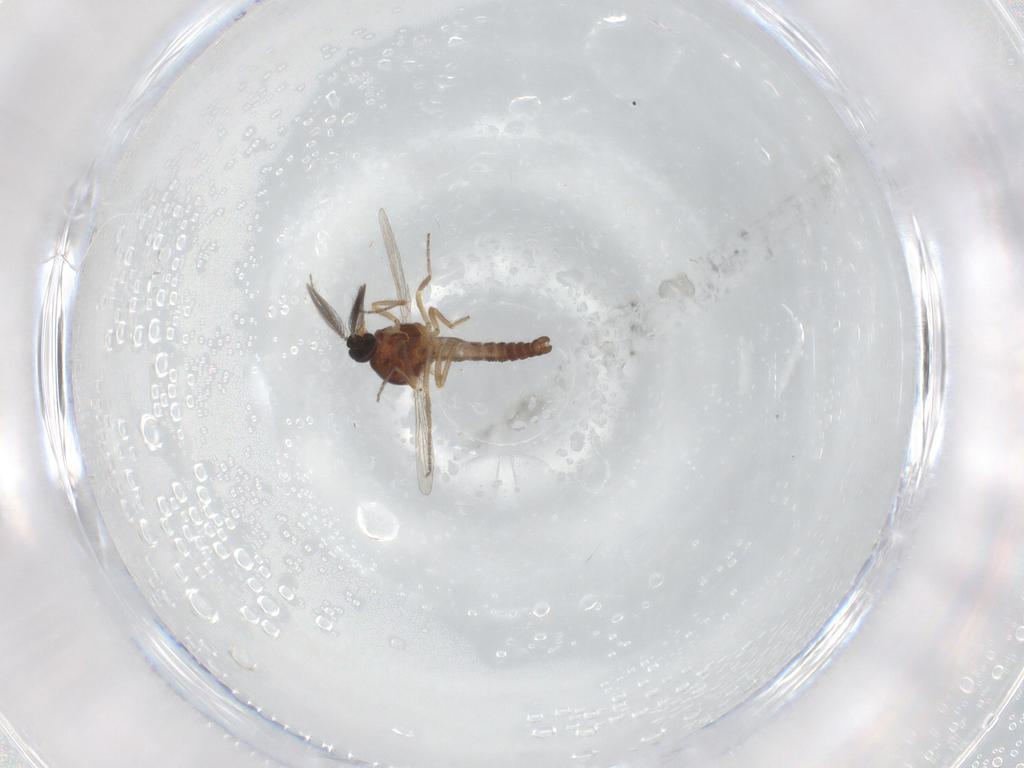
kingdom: Animalia
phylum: Arthropoda
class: Insecta
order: Diptera
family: Ceratopogonidae
